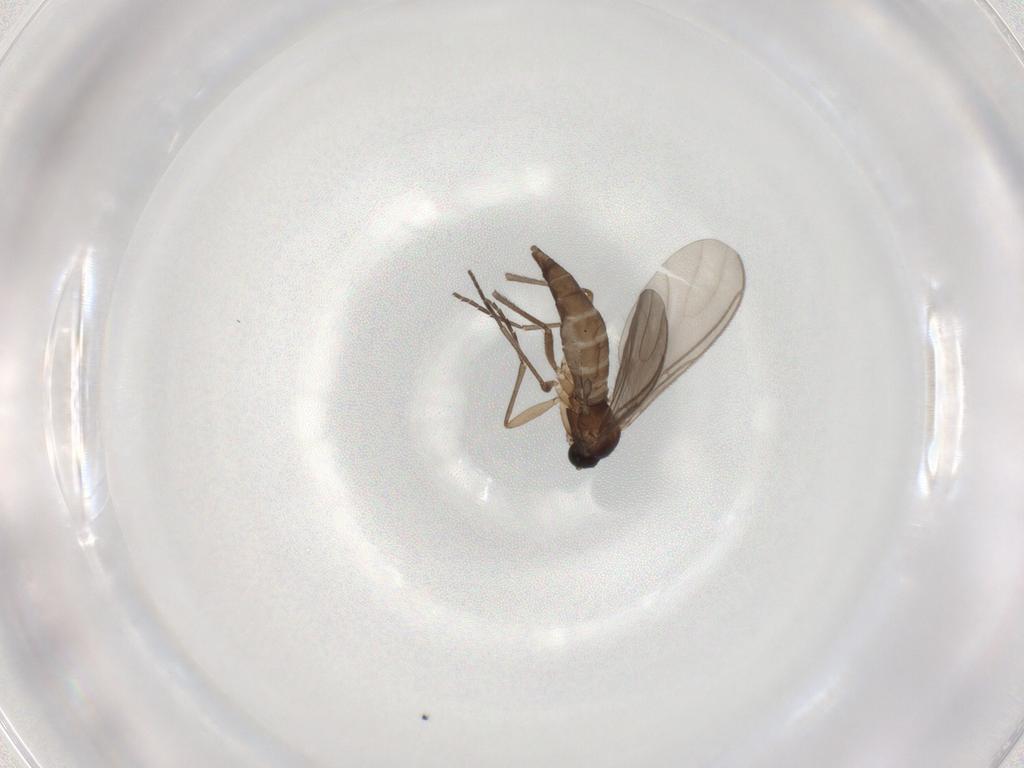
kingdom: Animalia
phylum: Arthropoda
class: Insecta
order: Diptera
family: Sciaridae
